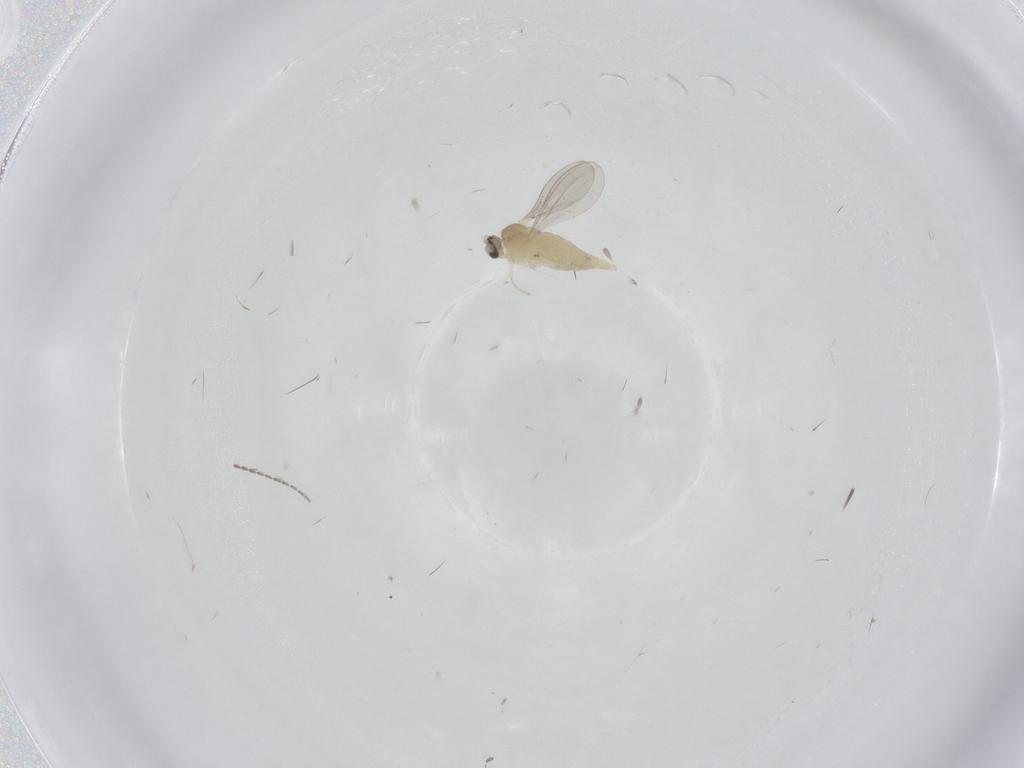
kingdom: Animalia
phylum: Arthropoda
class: Insecta
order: Diptera
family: Cecidomyiidae
